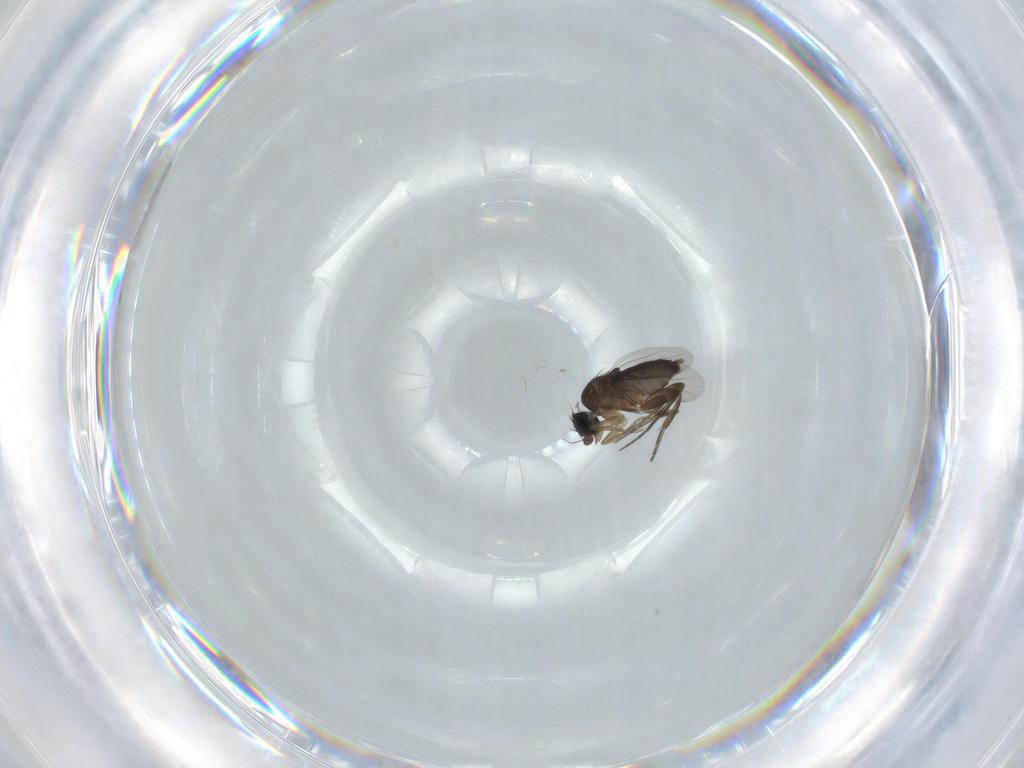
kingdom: Animalia
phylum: Arthropoda
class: Insecta
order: Diptera
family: Phoridae
